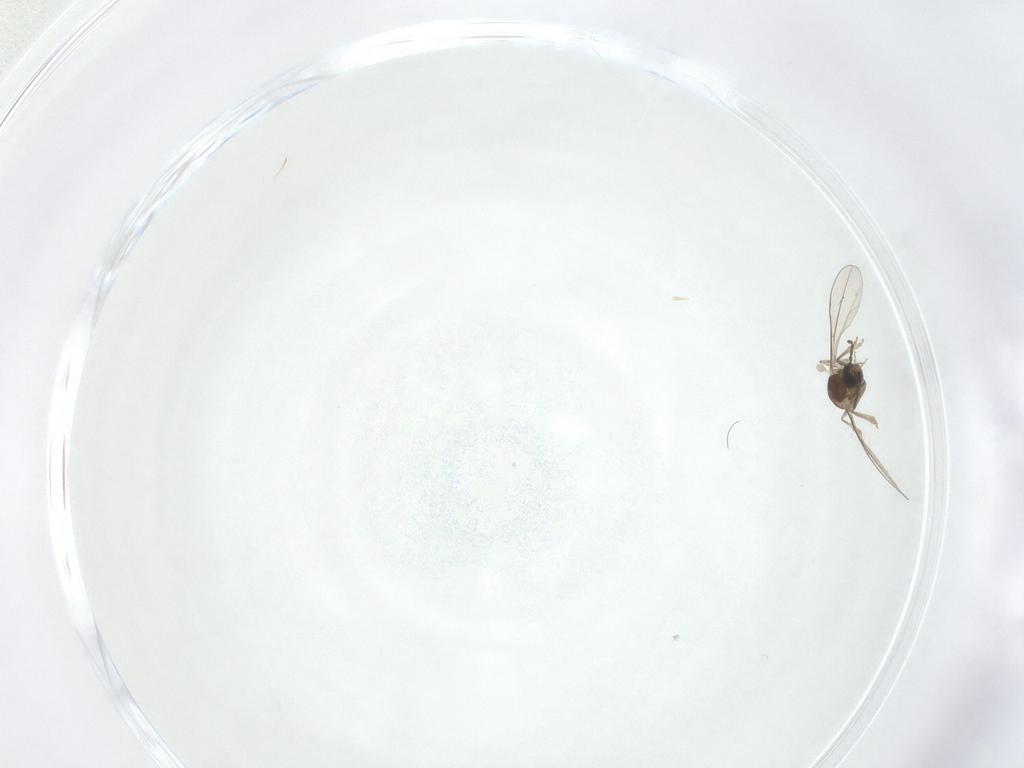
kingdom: Animalia
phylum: Arthropoda
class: Insecta
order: Diptera
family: Cecidomyiidae
